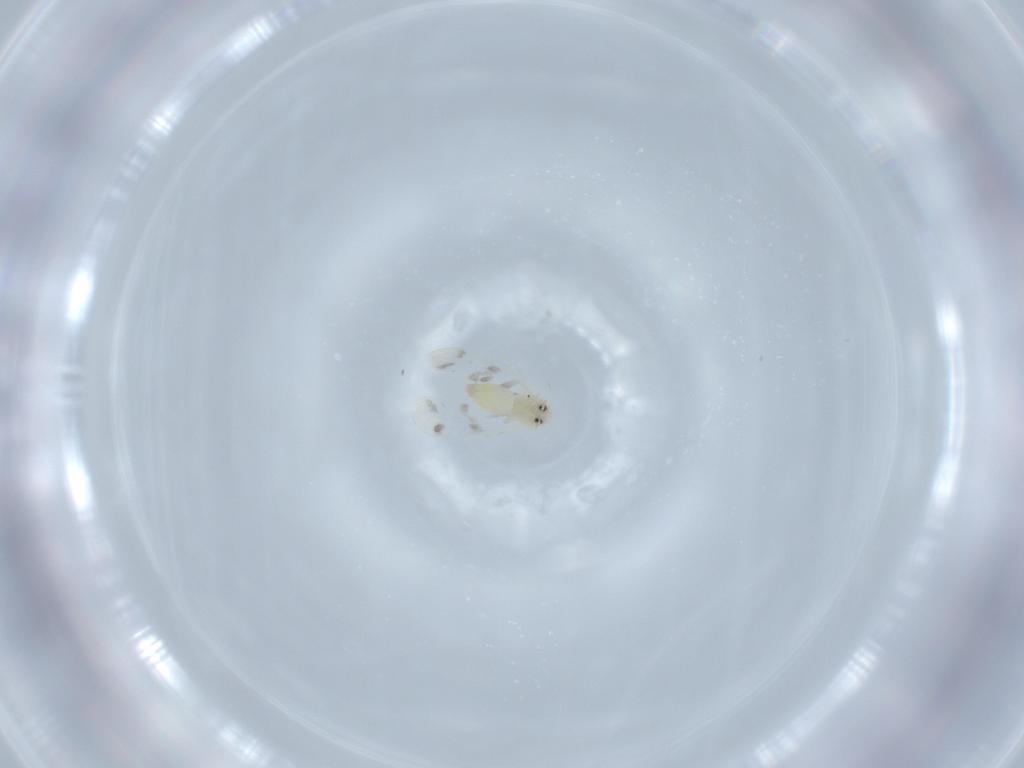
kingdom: Animalia
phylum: Arthropoda
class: Insecta
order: Hemiptera
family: Aleyrodidae
